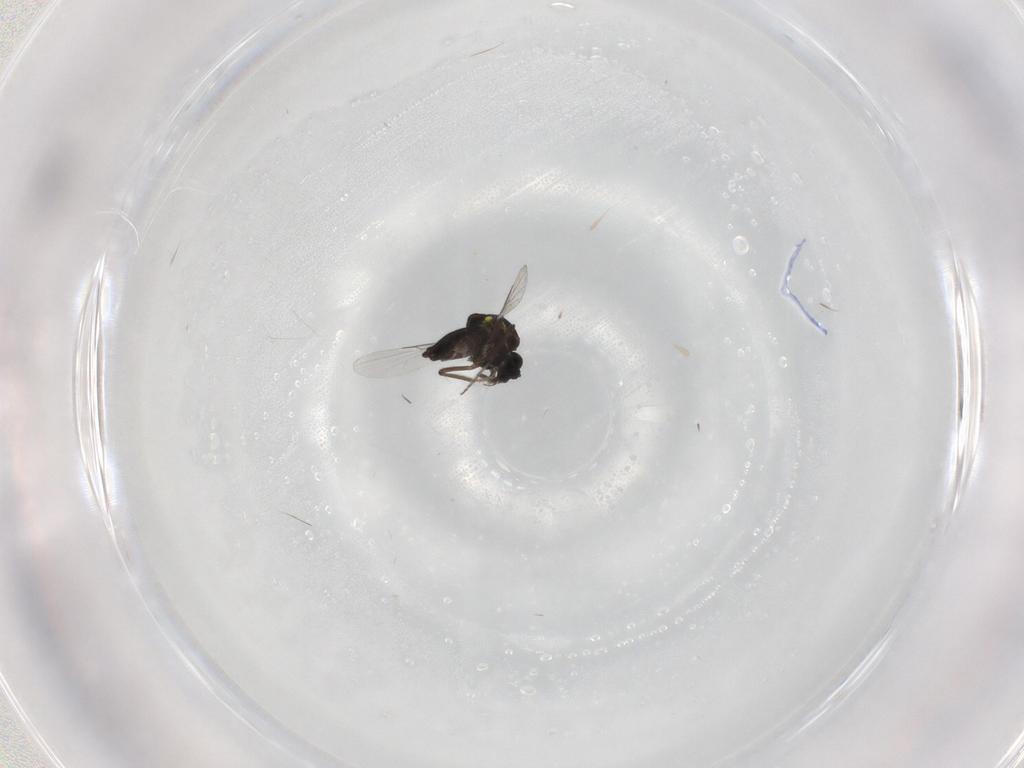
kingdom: Animalia
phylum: Arthropoda
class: Insecta
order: Diptera
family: Ceratopogonidae
